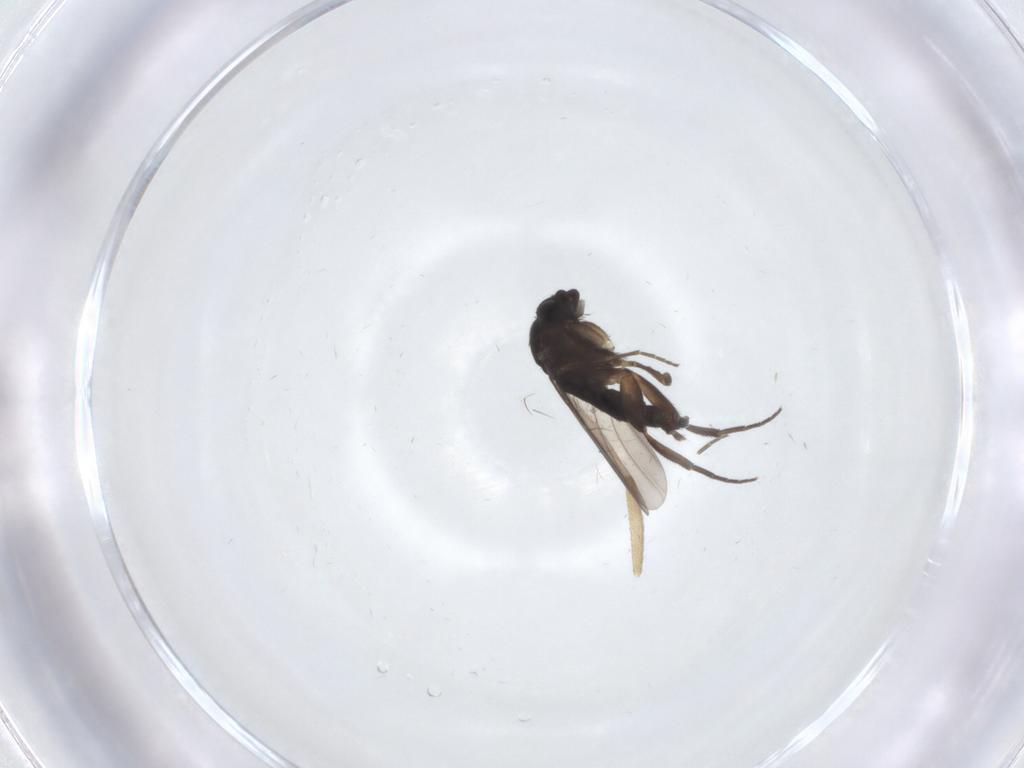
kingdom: Animalia
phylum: Arthropoda
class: Insecta
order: Diptera
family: Phoridae
